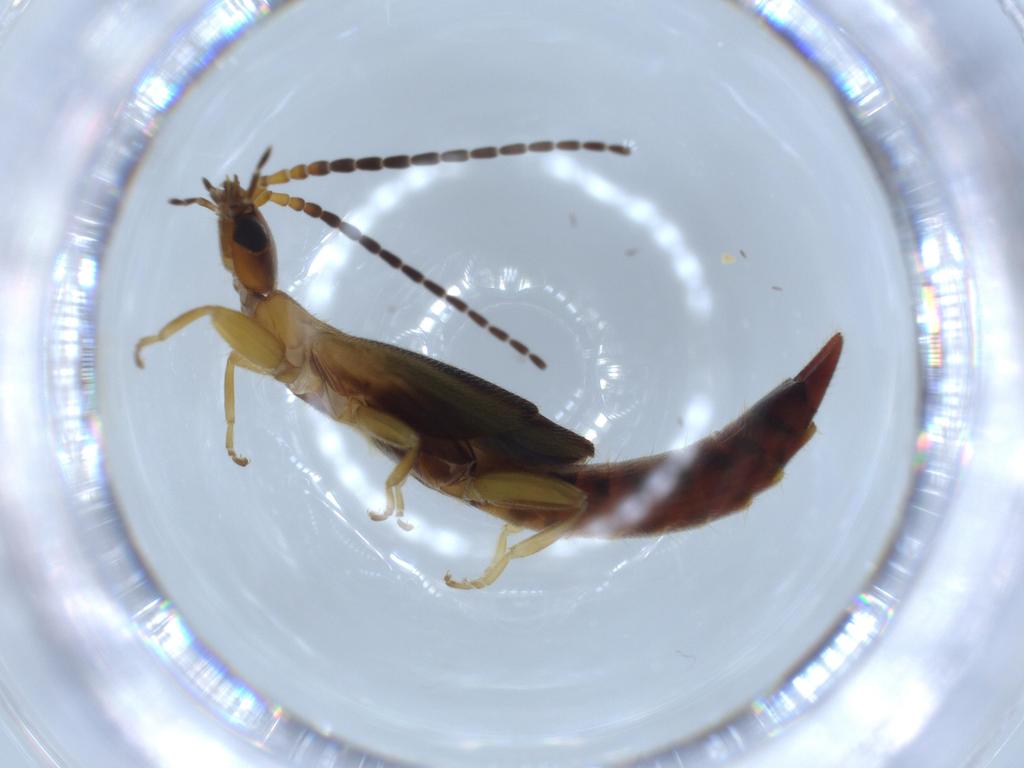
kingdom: Animalia
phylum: Arthropoda
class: Insecta
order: Dermaptera
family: Forficulidae
